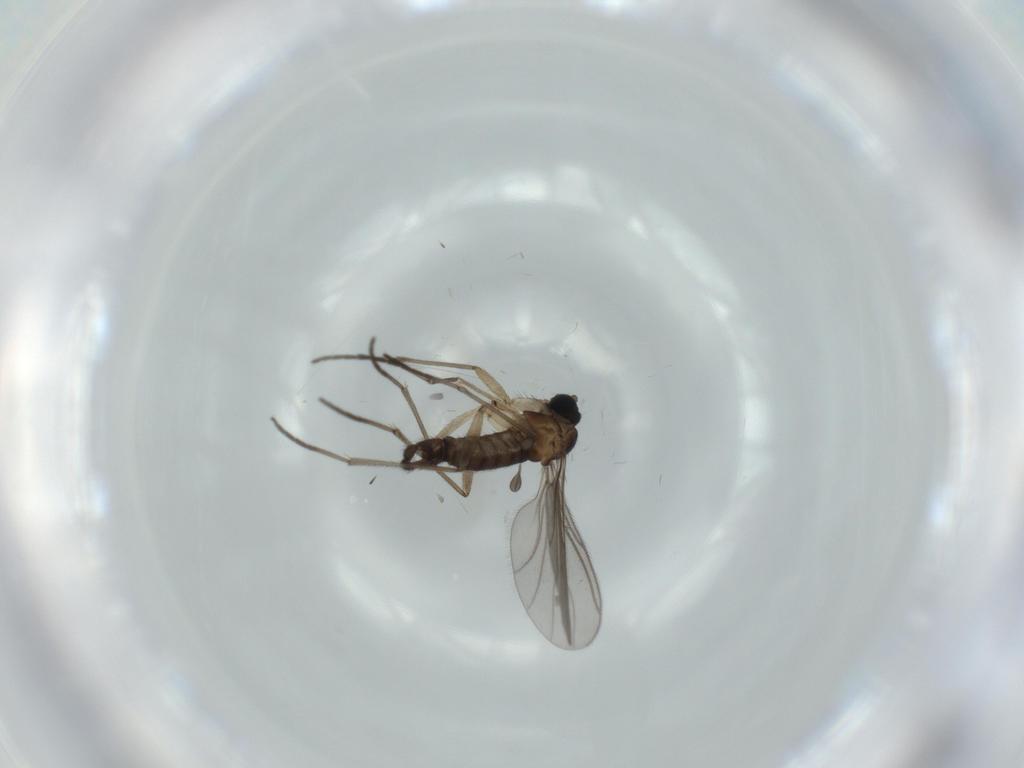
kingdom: Animalia
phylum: Arthropoda
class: Insecta
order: Diptera
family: Sciaridae
